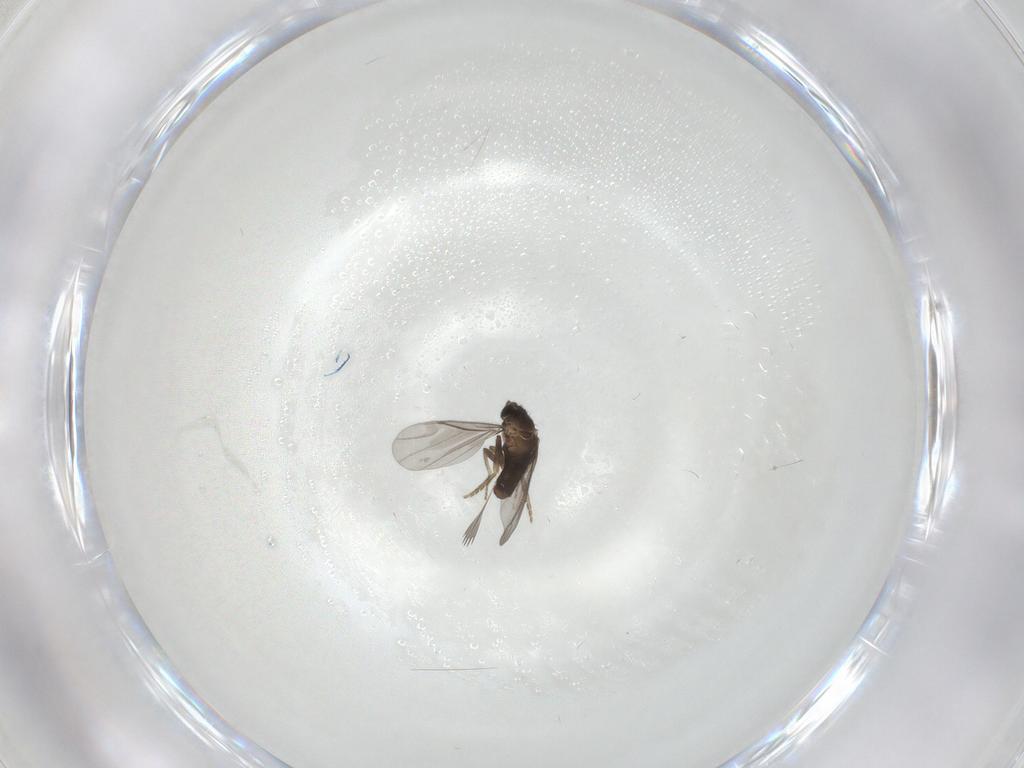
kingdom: Animalia
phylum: Arthropoda
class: Insecta
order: Diptera
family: Phoridae
